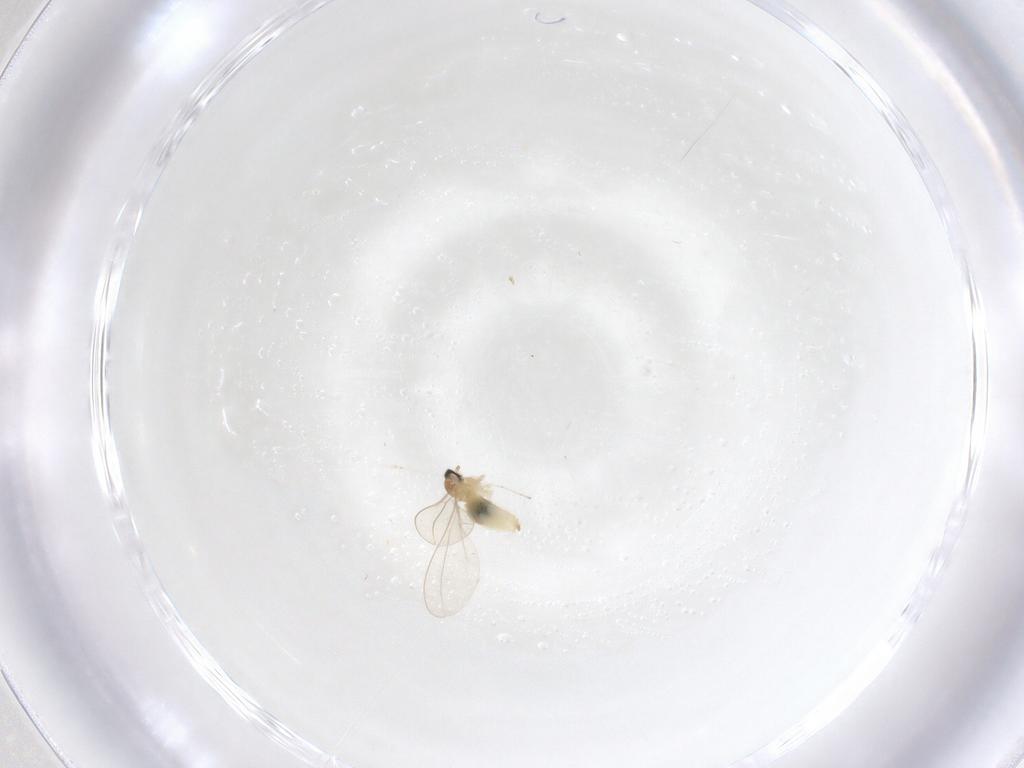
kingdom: Animalia
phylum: Arthropoda
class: Insecta
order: Diptera
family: Cecidomyiidae
